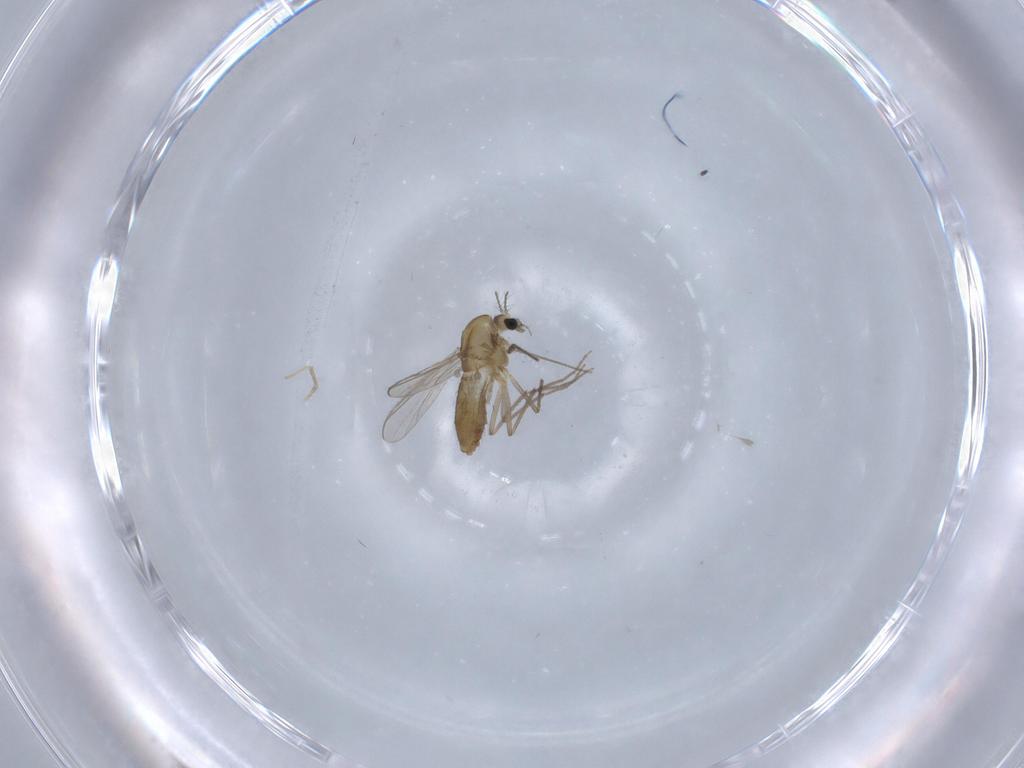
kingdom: Animalia
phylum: Arthropoda
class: Insecta
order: Diptera
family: Chironomidae
